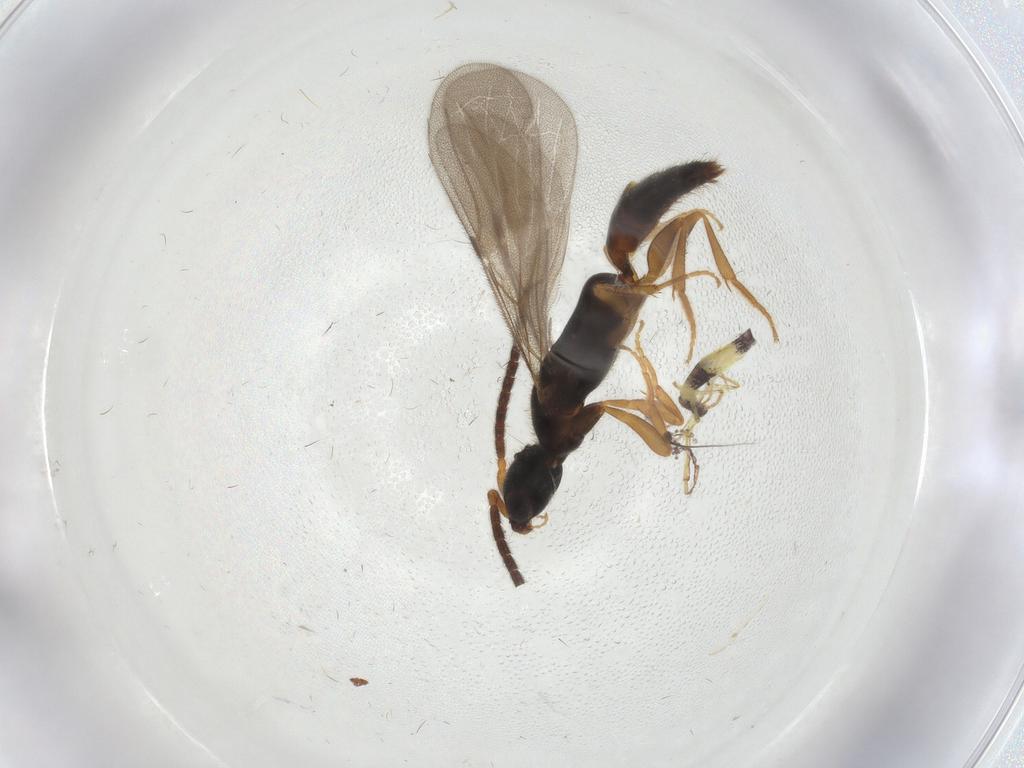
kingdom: Animalia
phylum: Arthropoda
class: Insecta
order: Hymenoptera
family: Bethylidae
